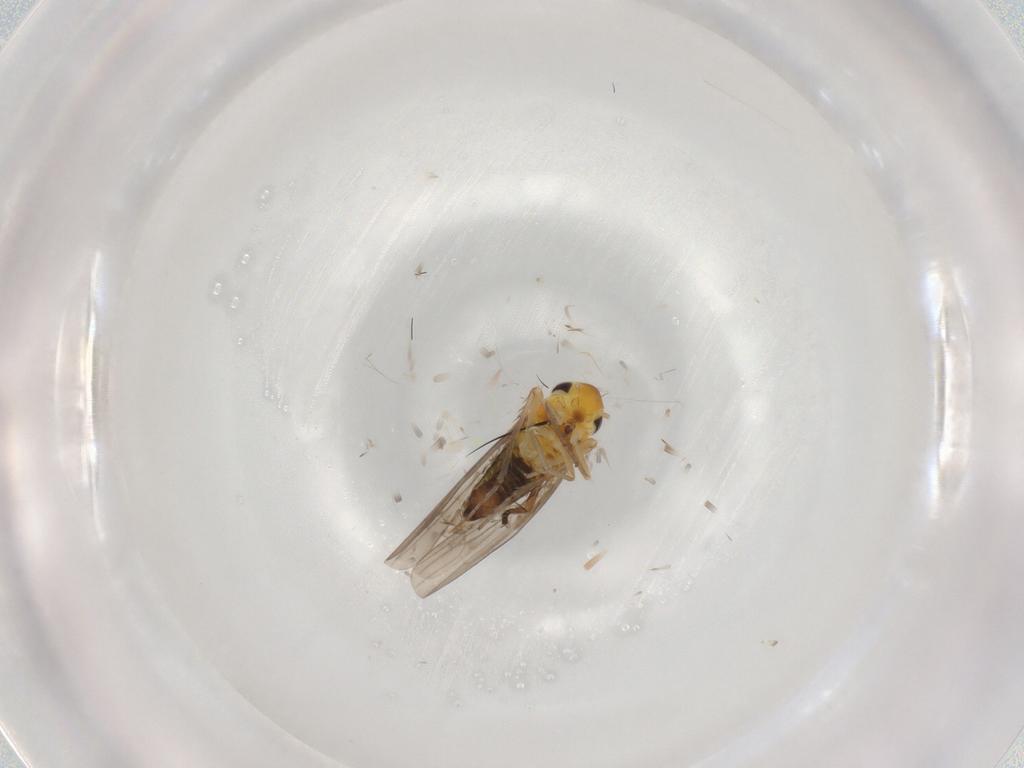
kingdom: Animalia
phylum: Arthropoda
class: Insecta
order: Hemiptera
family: Cicadellidae
